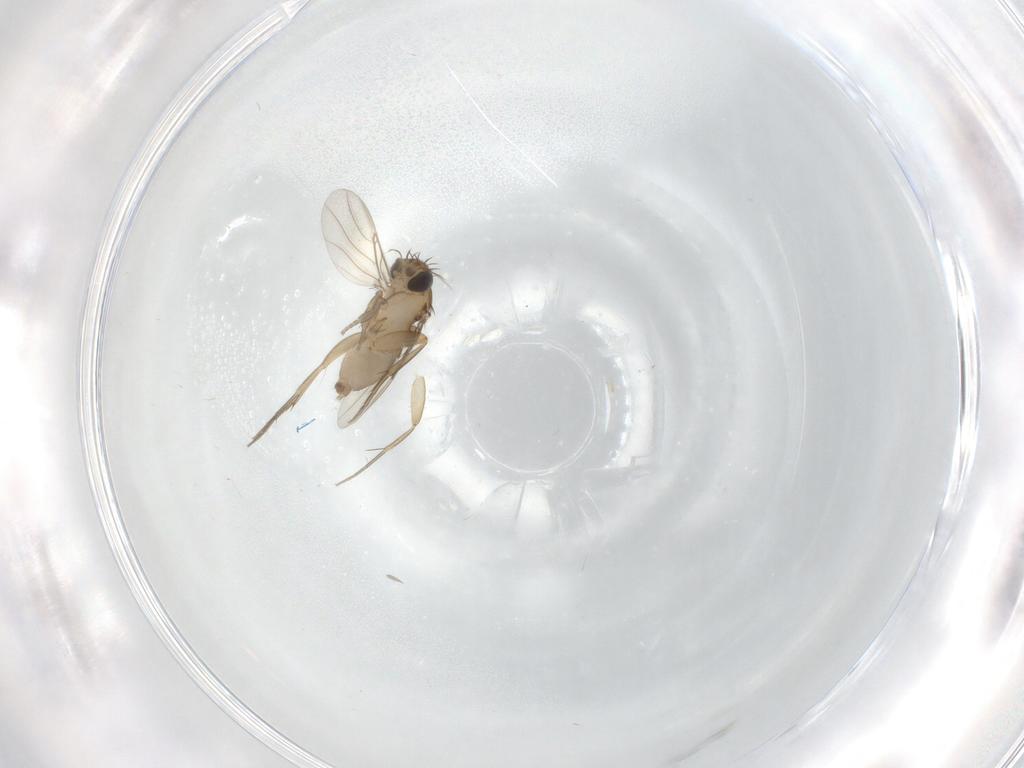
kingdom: Animalia
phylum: Arthropoda
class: Insecta
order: Diptera
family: Phoridae
